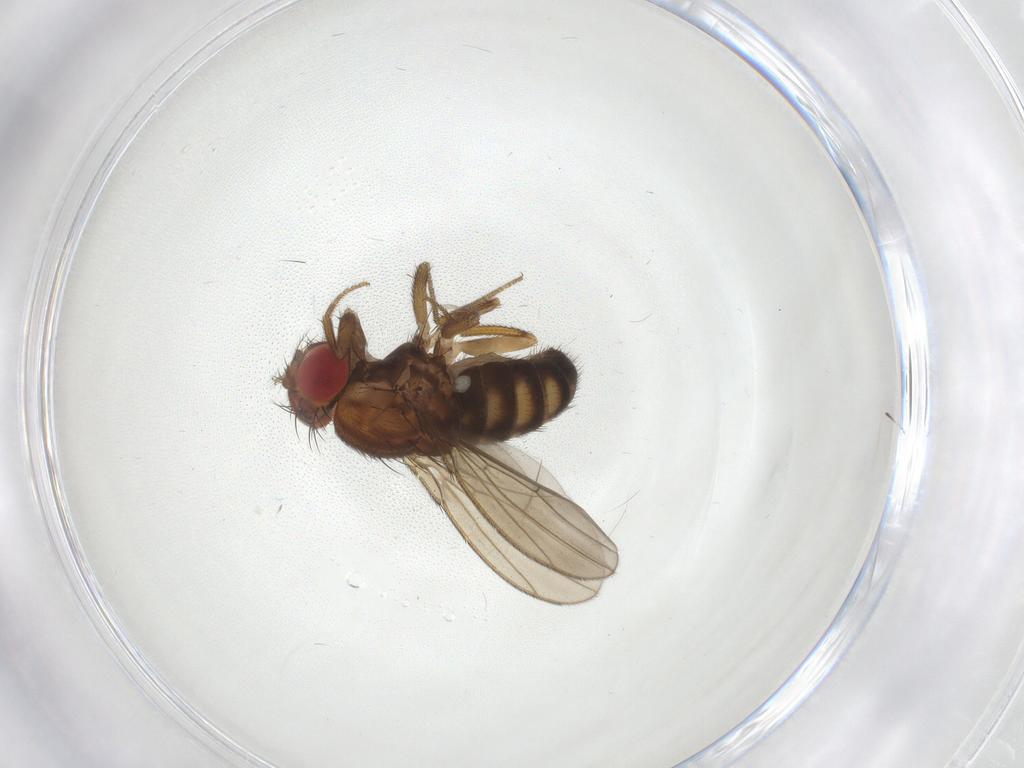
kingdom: Animalia
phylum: Arthropoda
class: Insecta
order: Diptera
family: Drosophilidae
